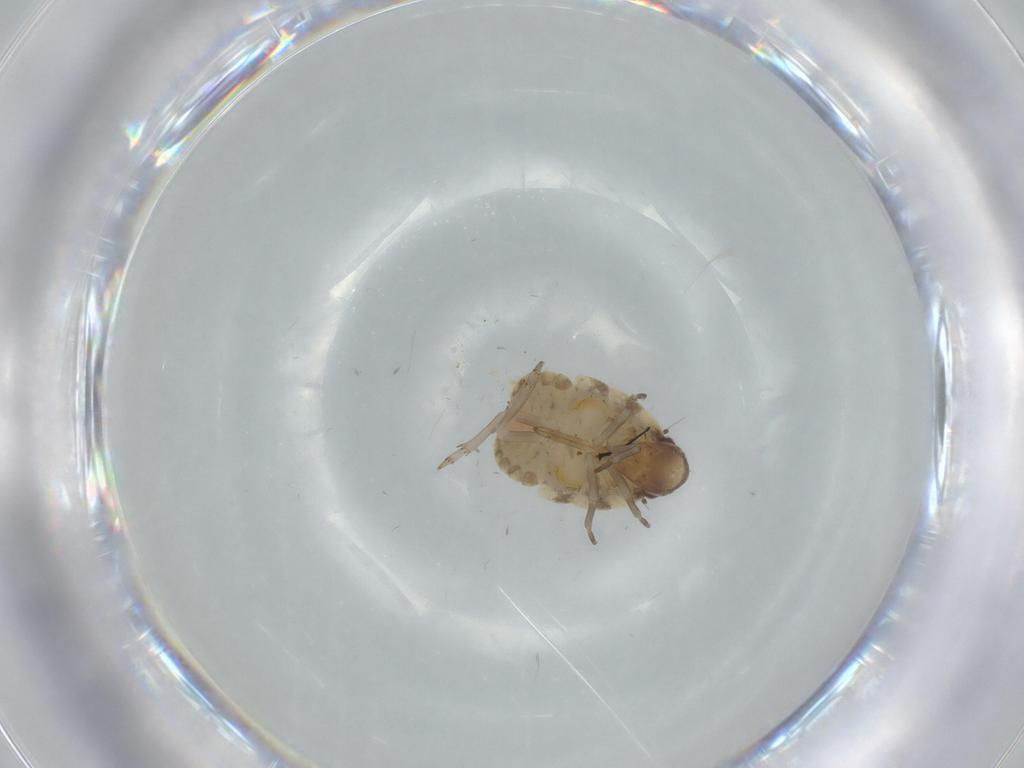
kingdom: Animalia
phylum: Arthropoda
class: Insecta
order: Hemiptera
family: Flatidae
